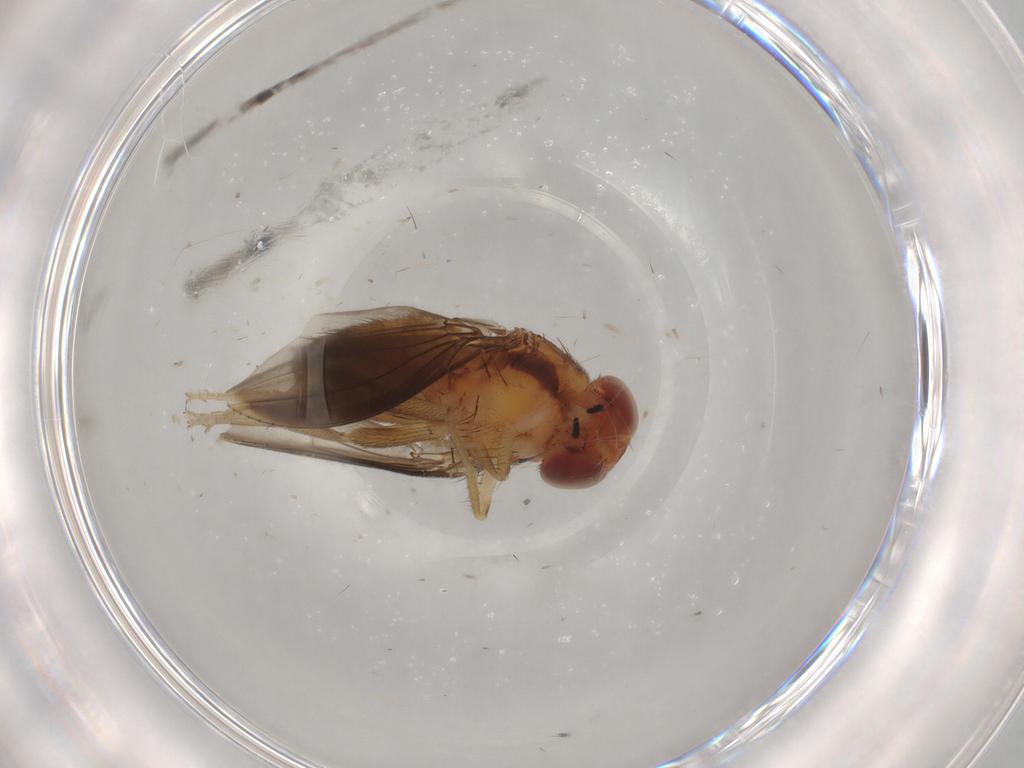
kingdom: Animalia
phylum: Arthropoda
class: Insecta
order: Diptera
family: Drosophilidae
